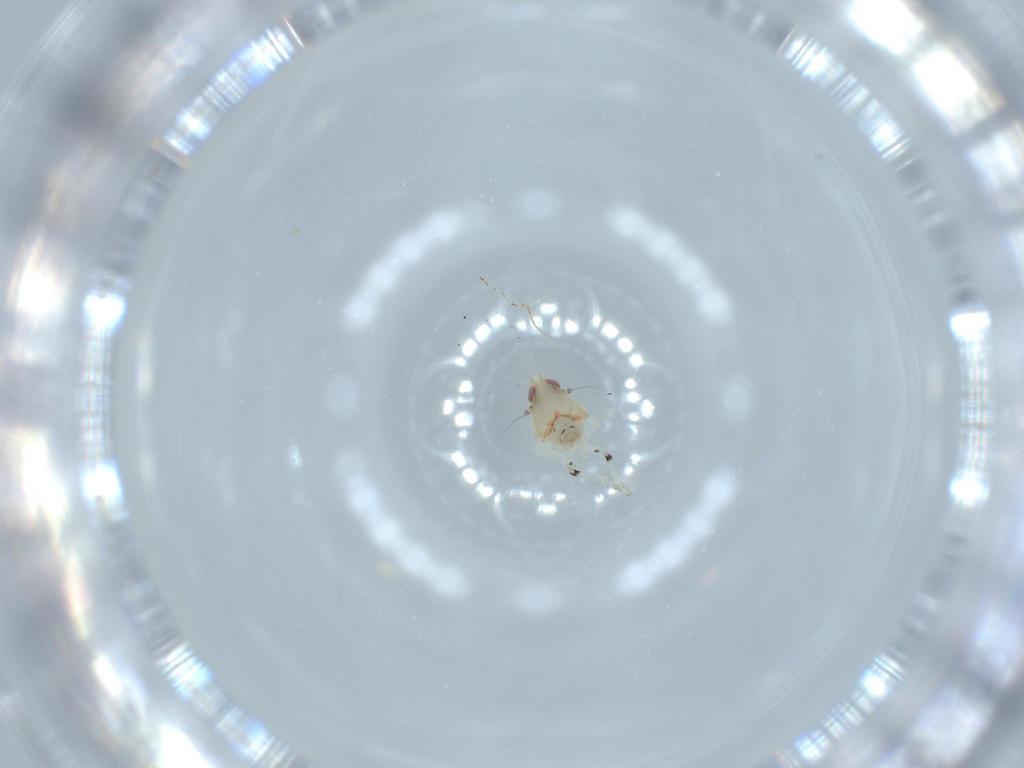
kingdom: Animalia
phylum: Arthropoda
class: Insecta
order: Hemiptera
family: Nogodinidae
